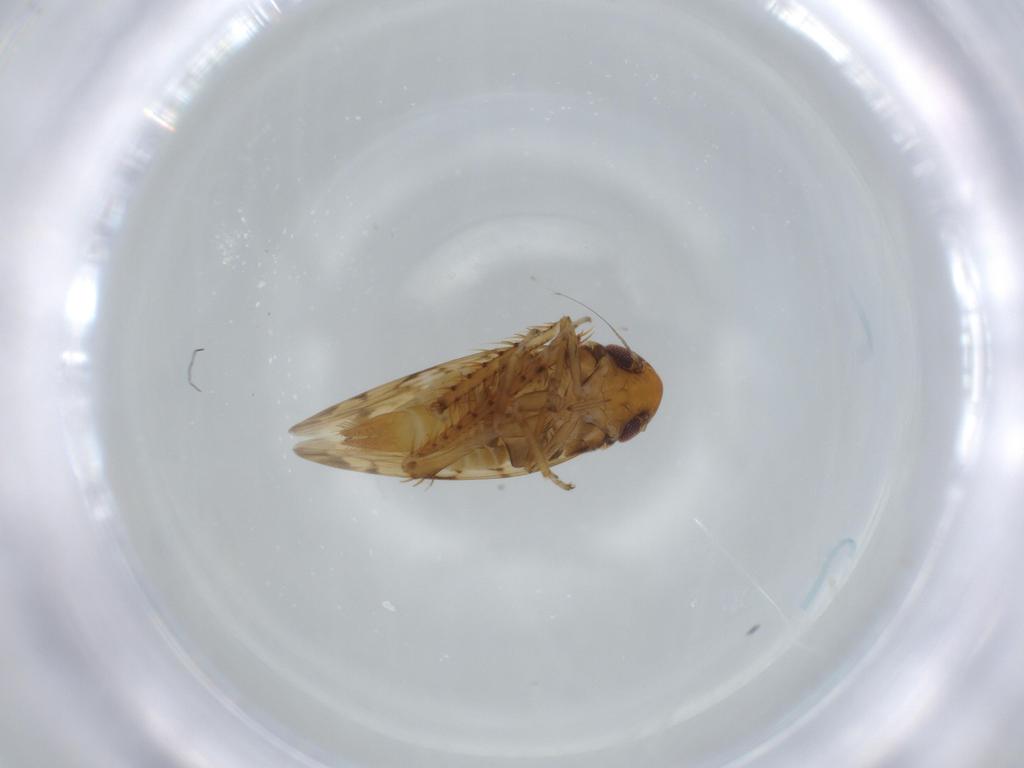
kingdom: Animalia
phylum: Arthropoda
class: Insecta
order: Hemiptera
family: Cicadellidae
